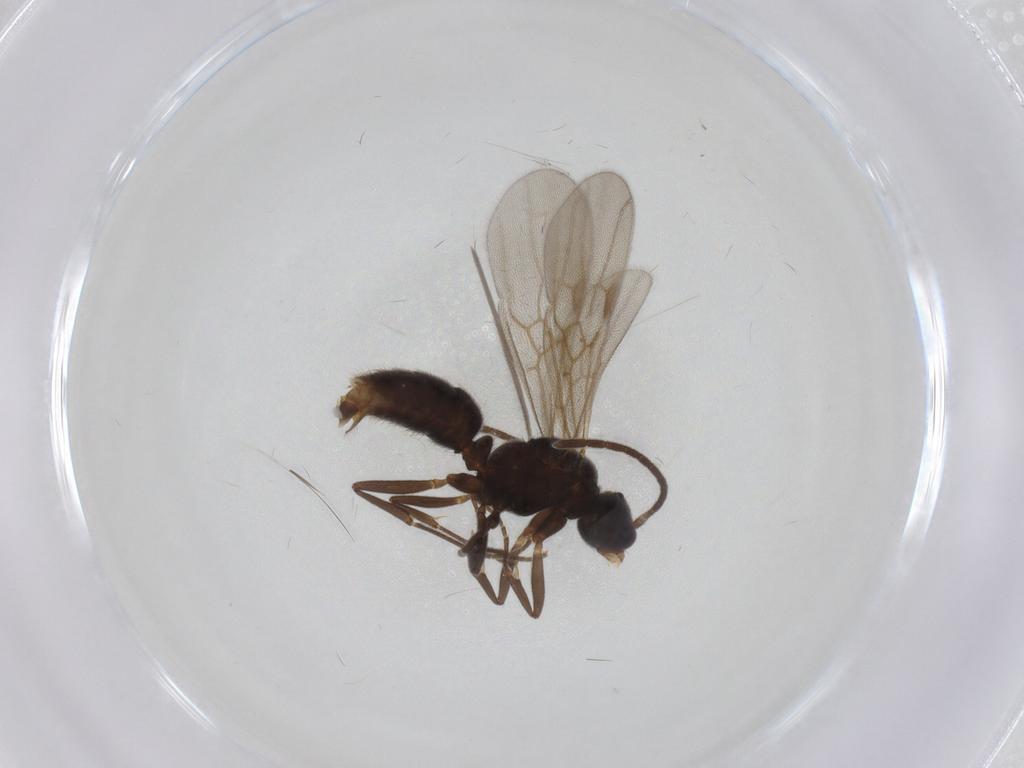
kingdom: Animalia
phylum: Arthropoda
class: Insecta
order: Hymenoptera
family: Formicidae
